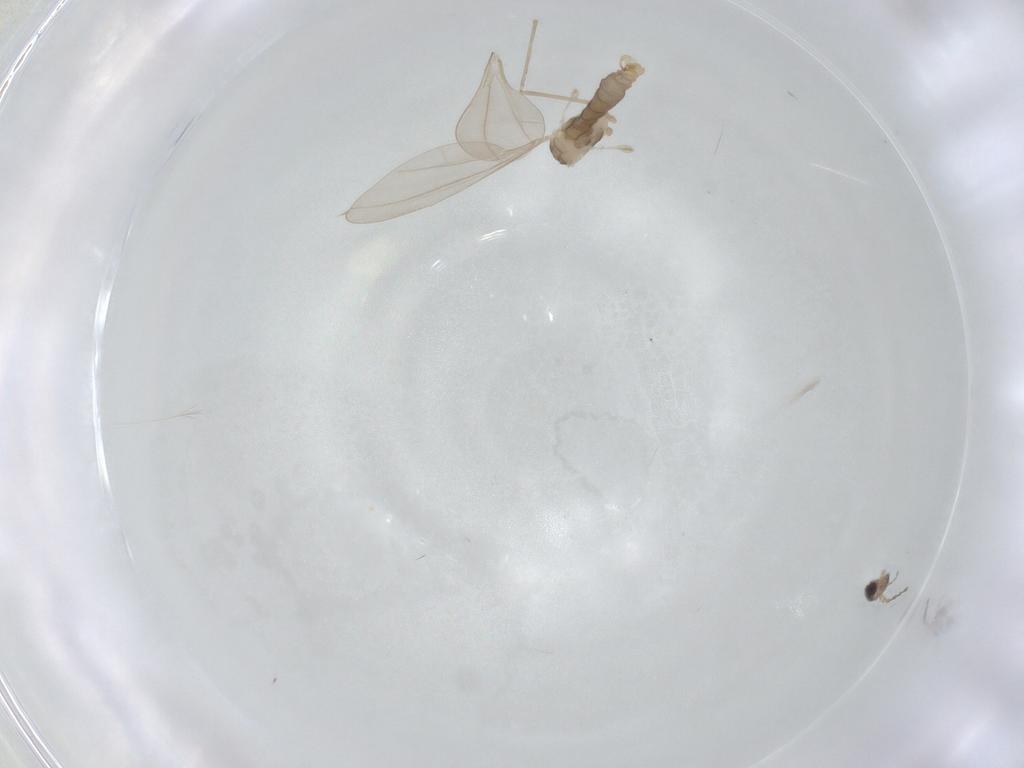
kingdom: Animalia
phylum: Arthropoda
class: Insecta
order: Diptera
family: Cecidomyiidae
